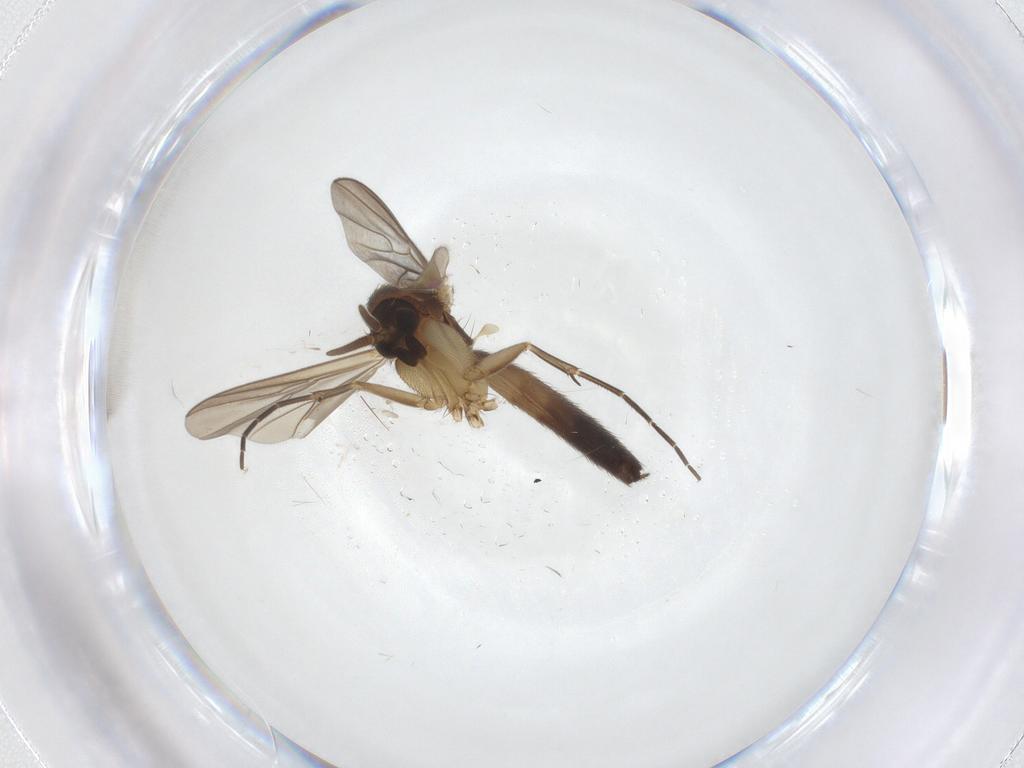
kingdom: Animalia
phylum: Arthropoda
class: Insecta
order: Diptera
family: Mycetophilidae
